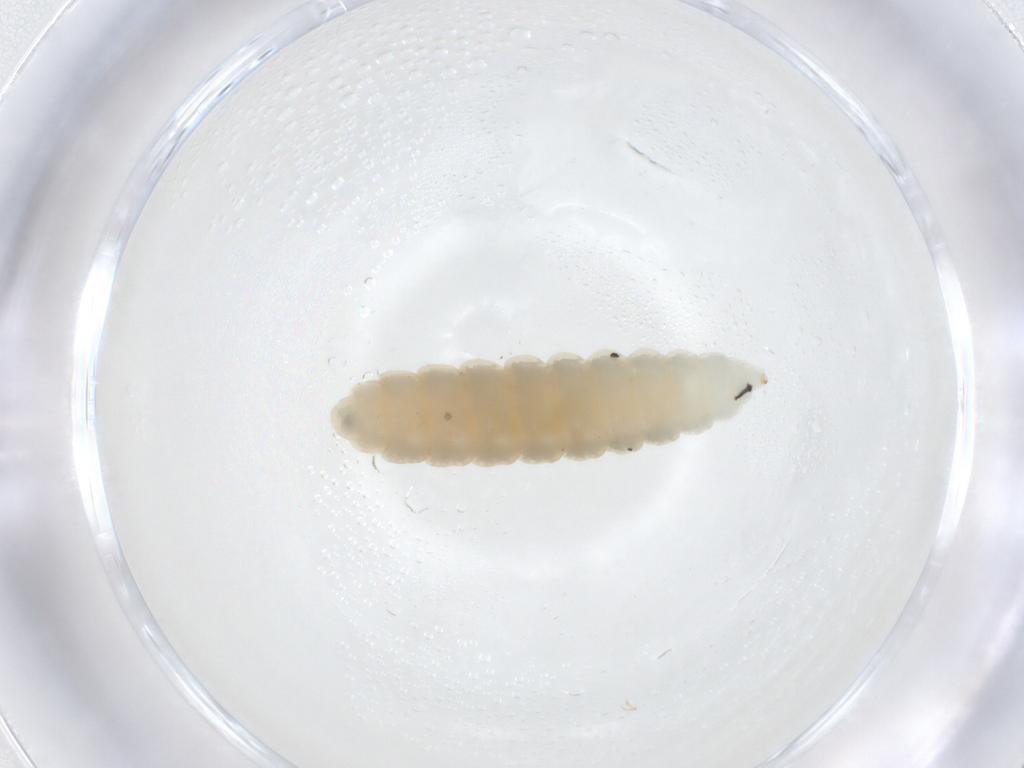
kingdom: Animalia
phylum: Arthropoda
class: Insecta
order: Diptera
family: Cecidomyiidae
